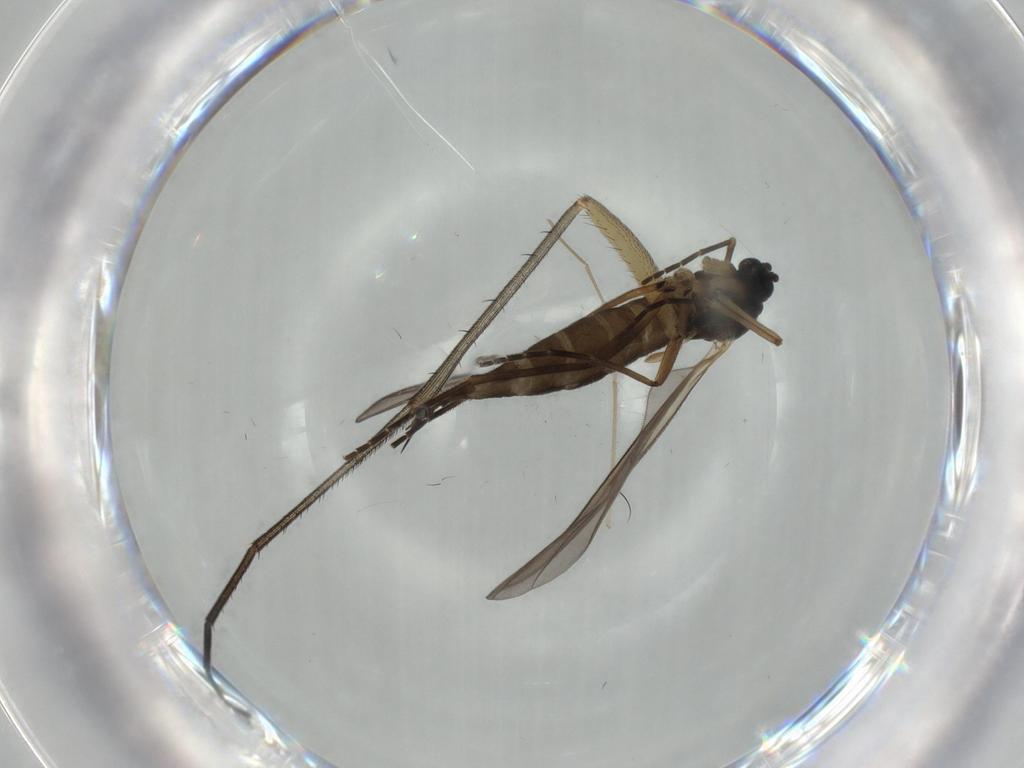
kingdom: Animalia
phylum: Arthropoda
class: Insecta
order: Diptera
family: Sciaridae
